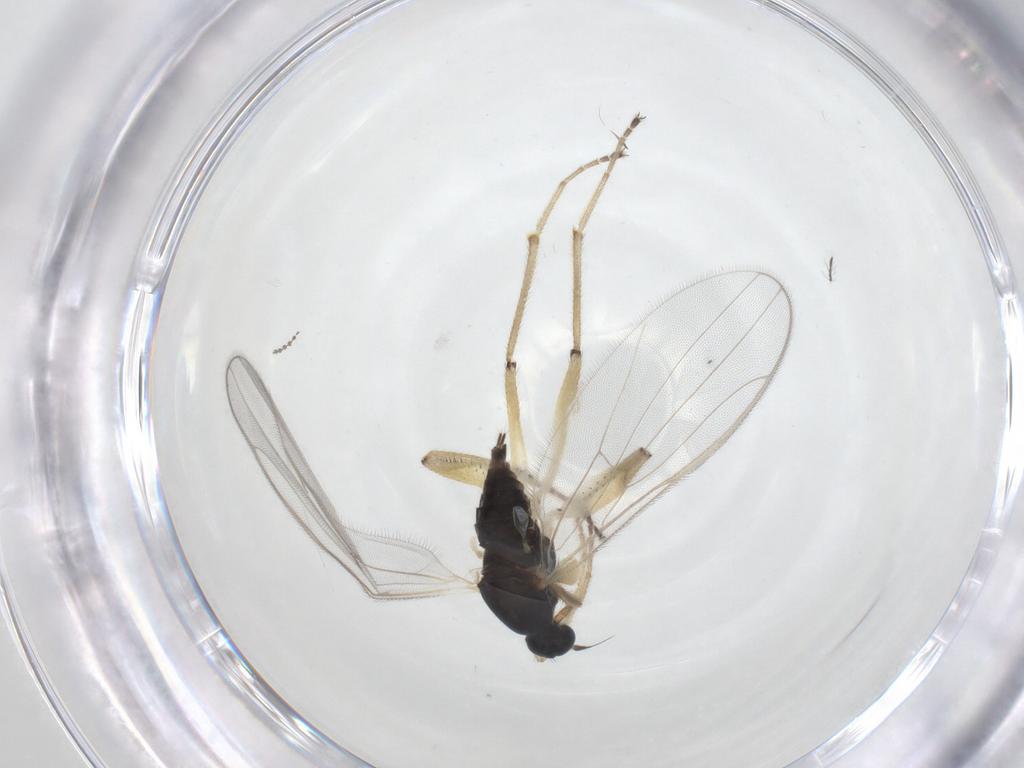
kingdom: Animalia
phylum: Arthropoda
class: Insecta
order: Diptera
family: Hybotidae
